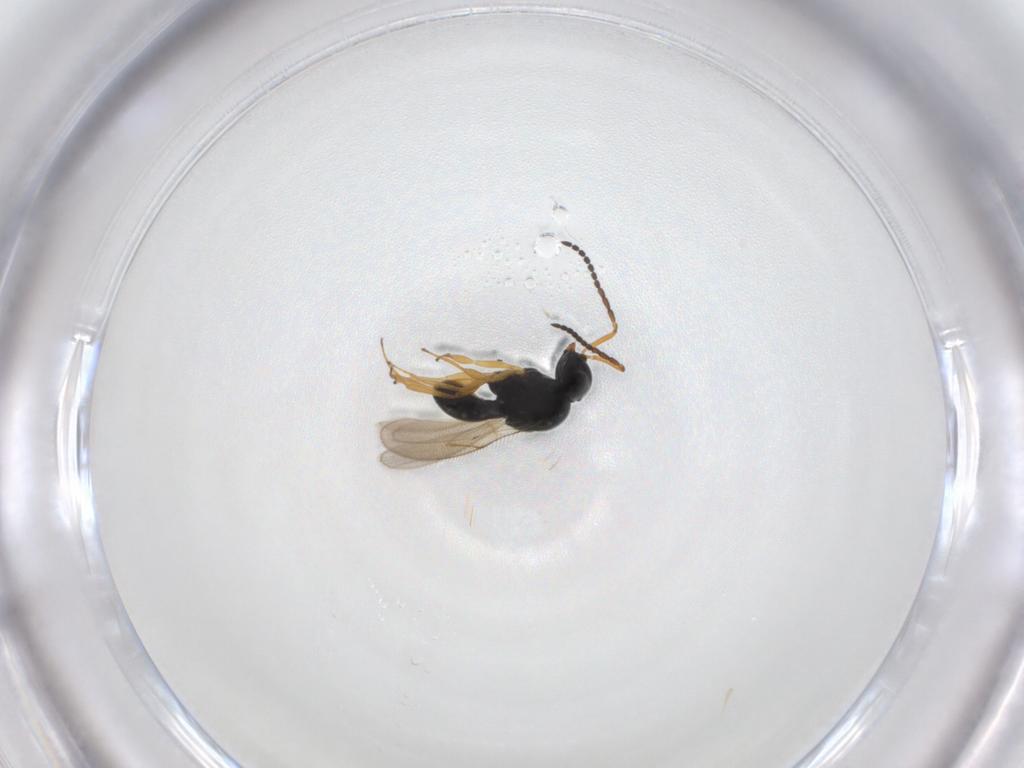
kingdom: Animalia
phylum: Arthropoda
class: Insecta
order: Hymenoptera
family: Scelionidae
